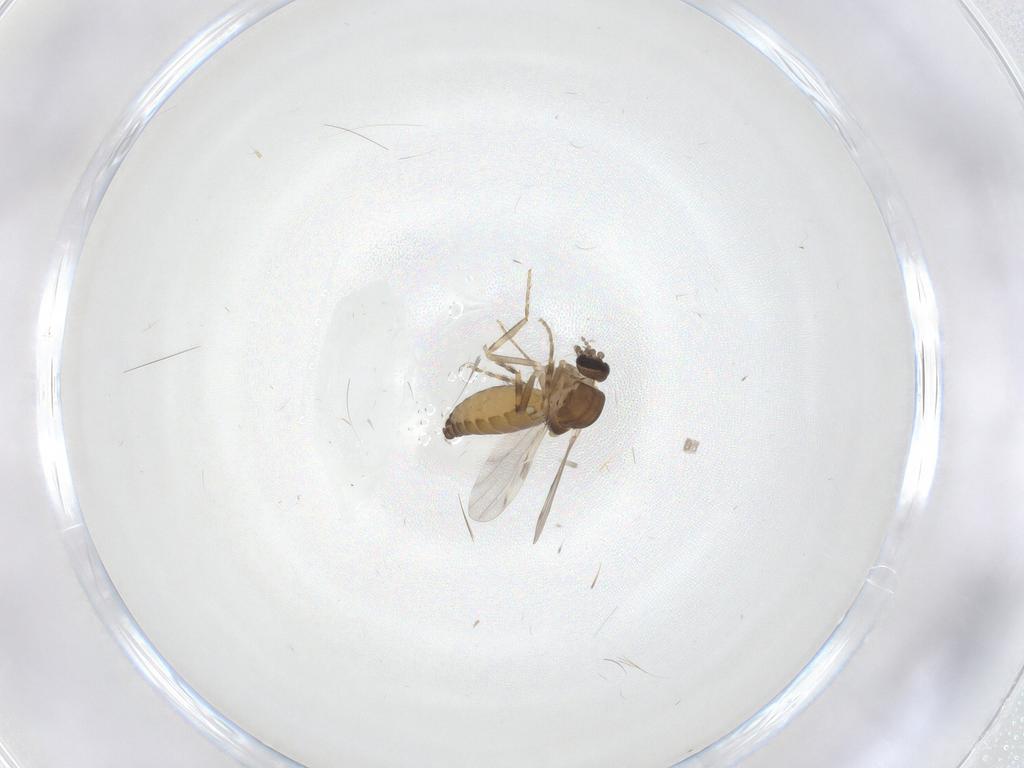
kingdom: Animalia
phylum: Arthropoda
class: Insecta
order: Diptera
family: Ceratopogonidae
